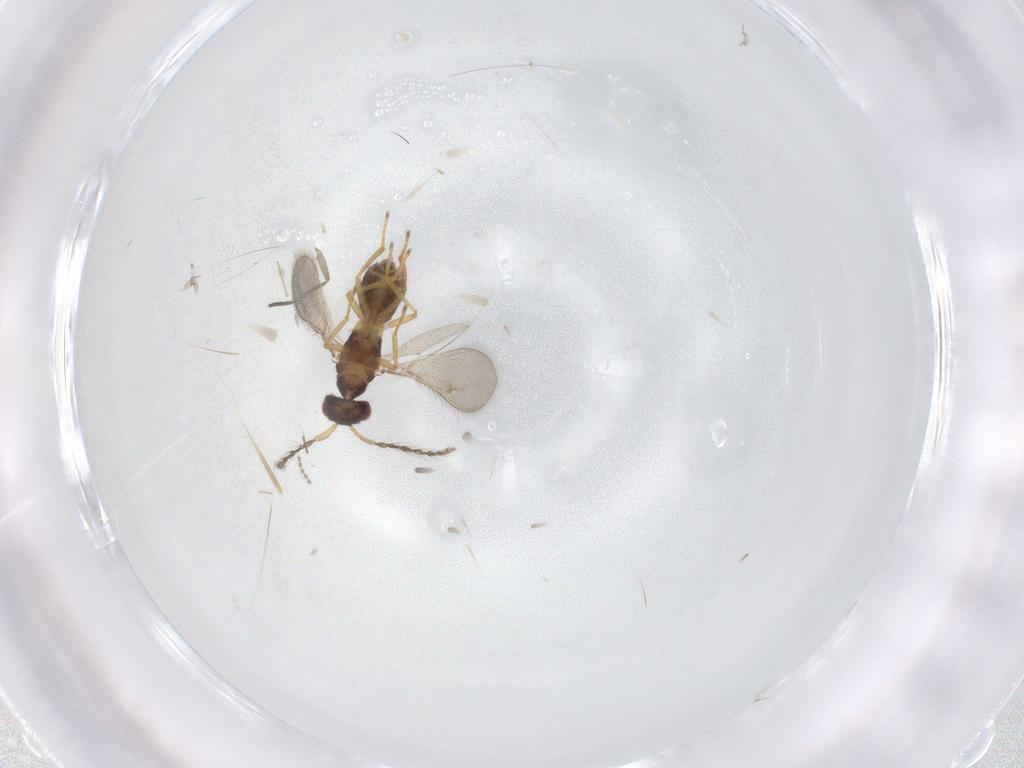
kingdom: Animalia
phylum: Arthropoda
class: Insecta
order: Hymenoptera
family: Eulophidae
